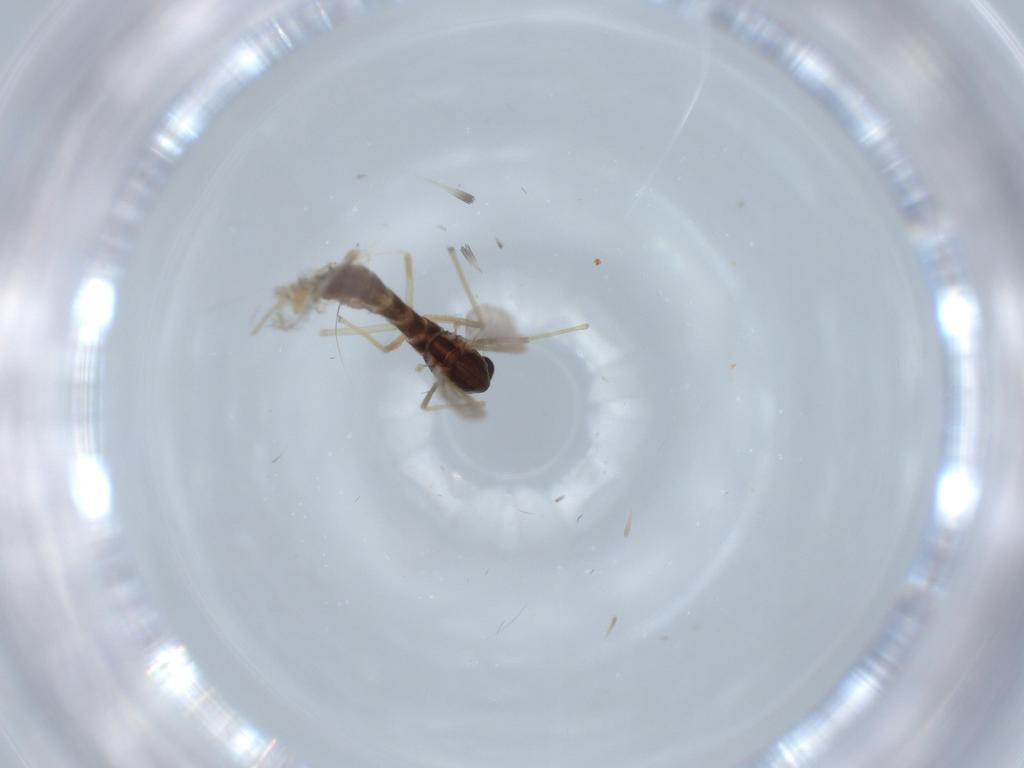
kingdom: Animalia
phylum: Arthropoda
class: Insecta
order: Diptera
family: Chironomidae
